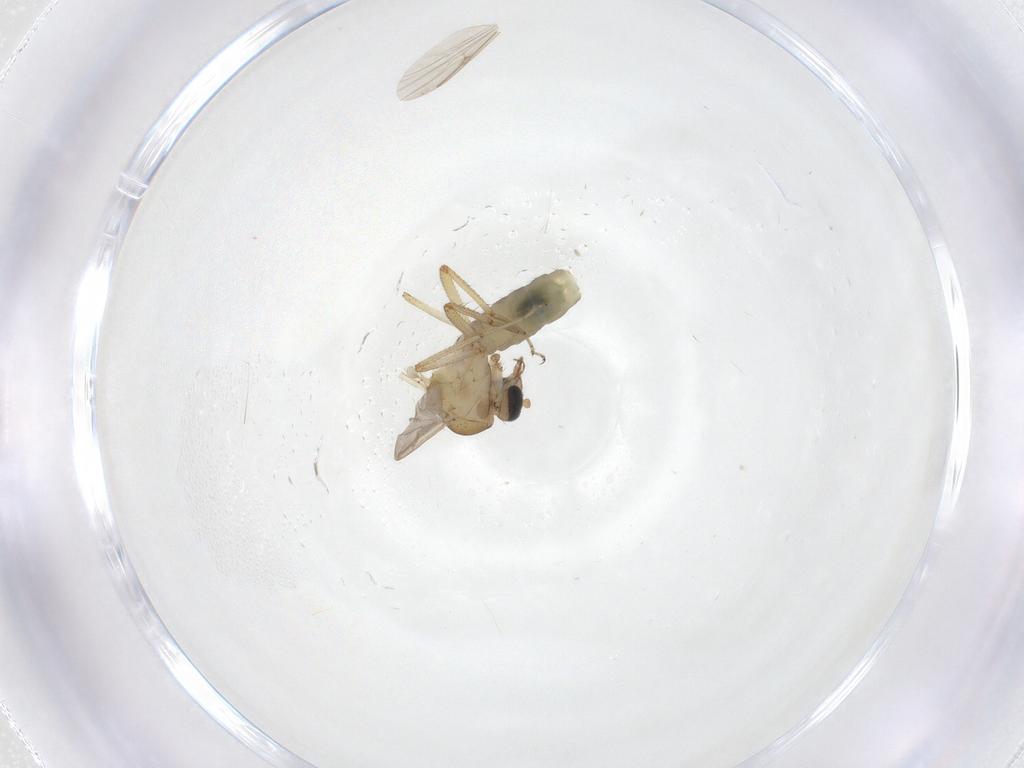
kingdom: Animalia
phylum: Arthropoda
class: Insecta
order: Diptera
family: Ceratopogonidae
